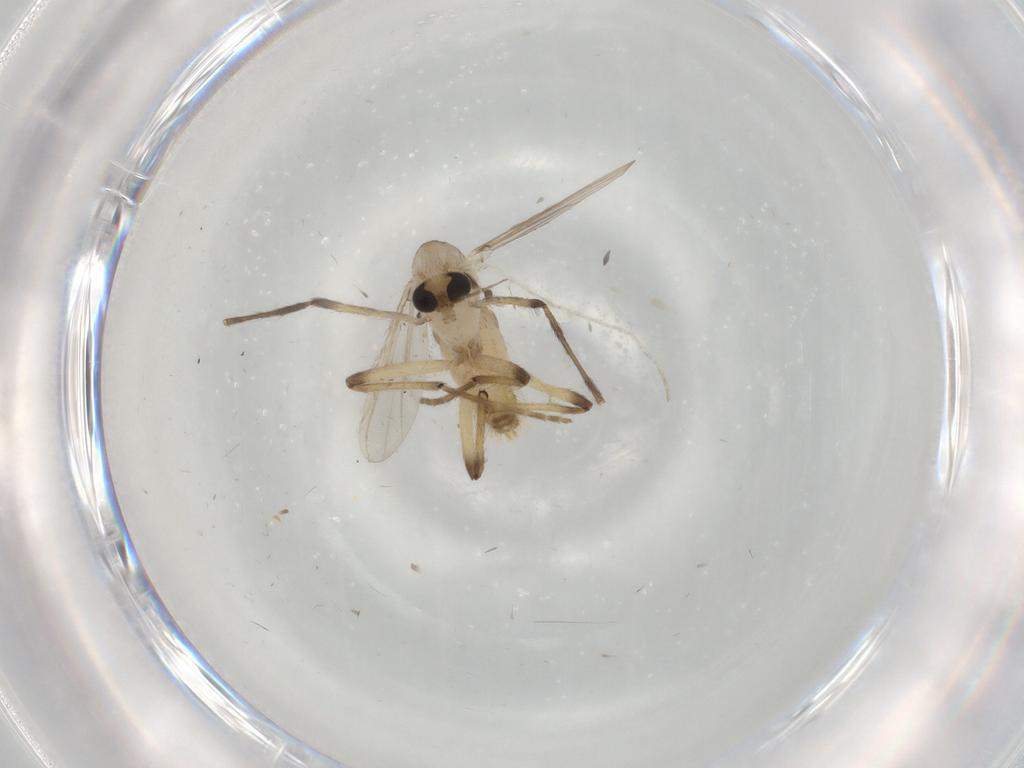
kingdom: Animalia
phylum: Arthropoda
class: Insecta
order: Diptera
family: Chironomidae
